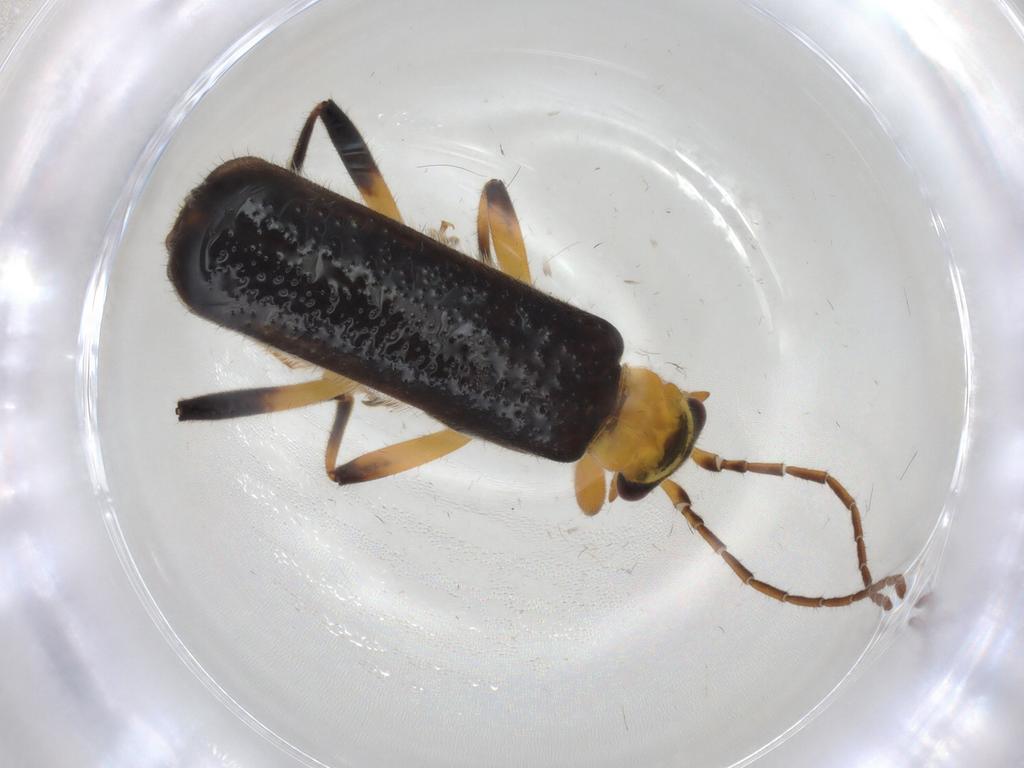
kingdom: Animalia
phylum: Arthropoda
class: Insecta
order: Coleoptera
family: Cantharidae
